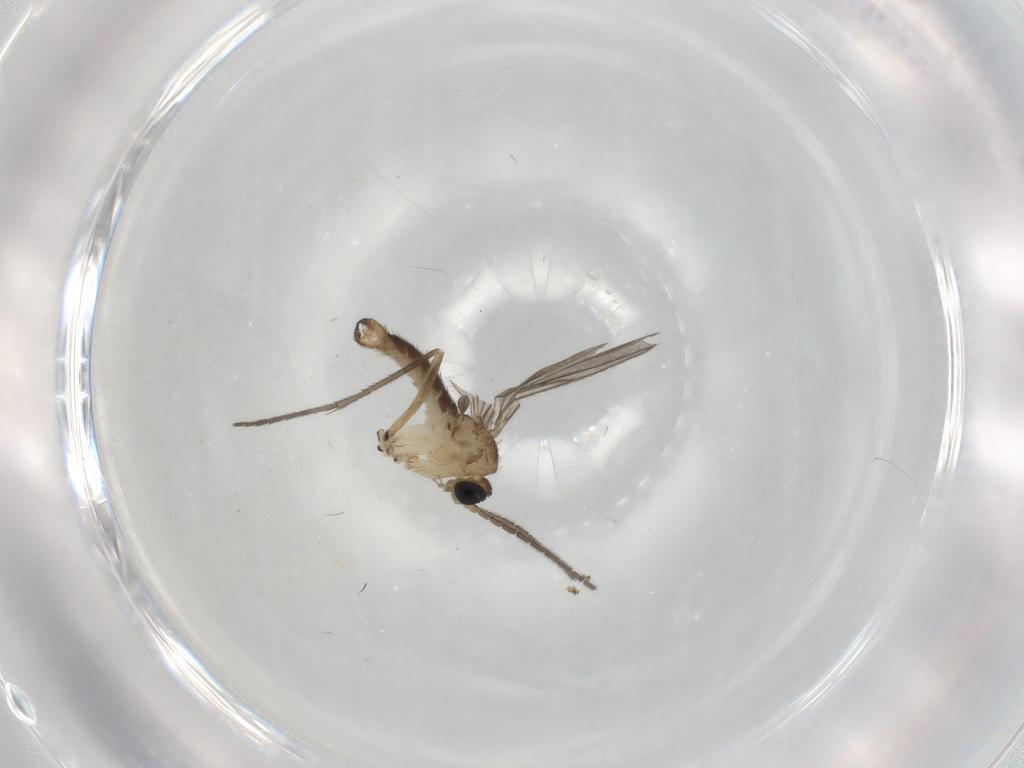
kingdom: Animalia
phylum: Arthropoda
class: Insecta
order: Diptera
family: Sciaridae
